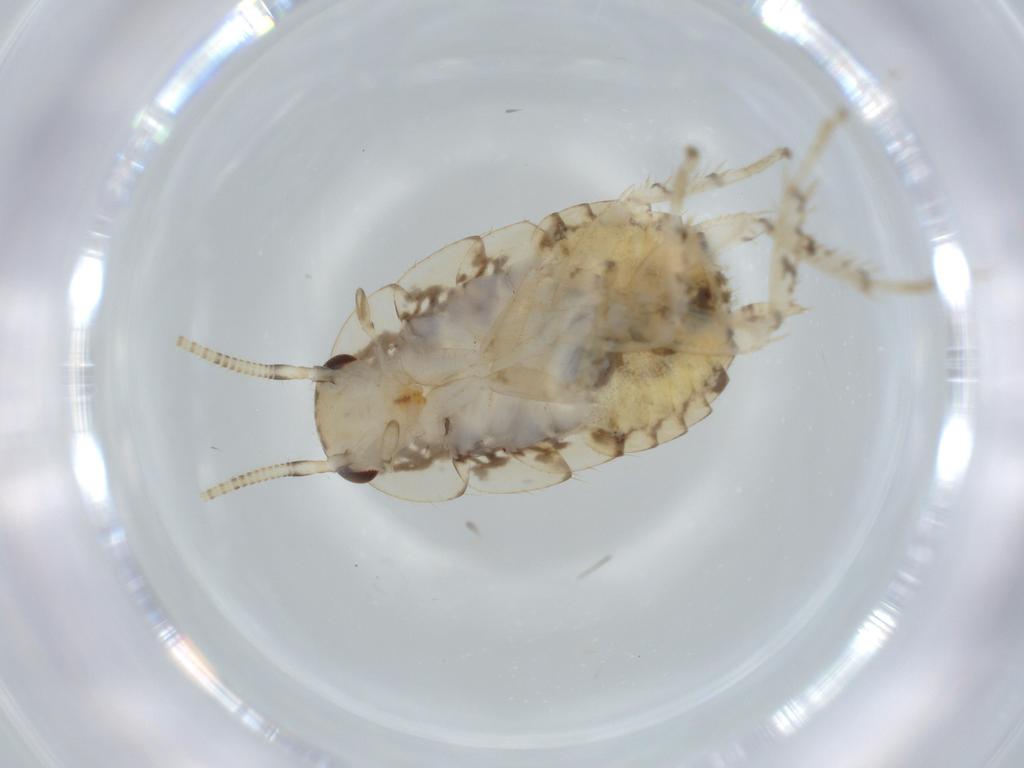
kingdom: Animalia
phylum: Arthropoda
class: Insecta
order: Blattodea
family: Ectobiidae
